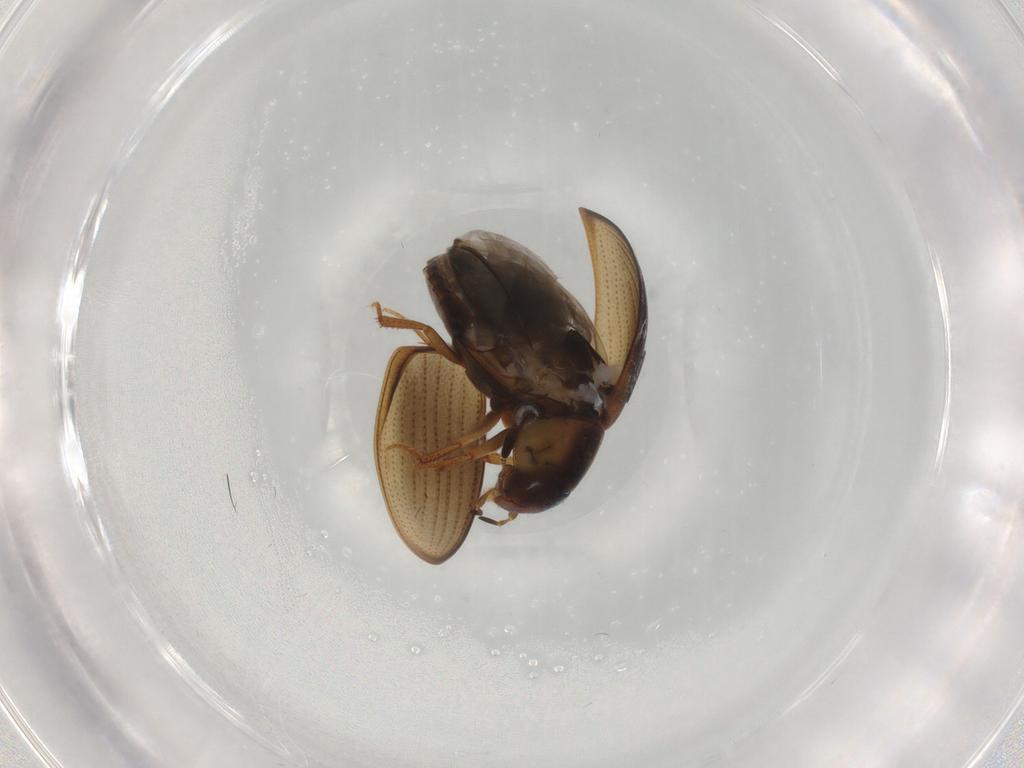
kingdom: Animalia
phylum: Arthropoda
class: Insecta
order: Coleoptera
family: Hydrophilidae
